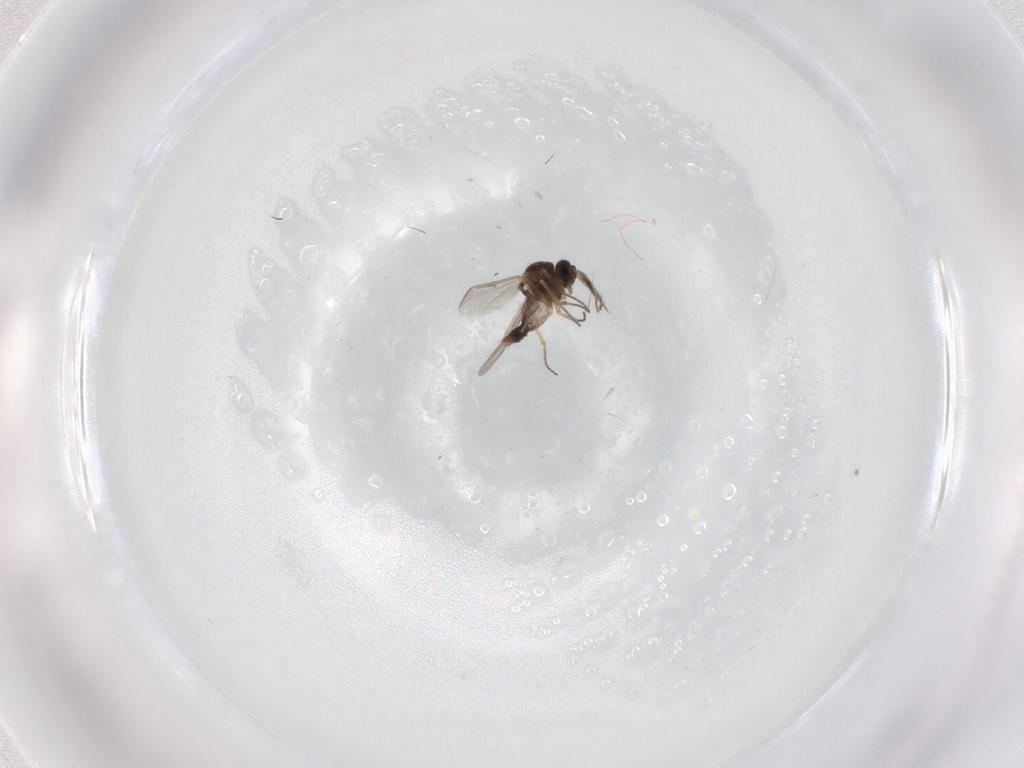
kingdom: Animalia
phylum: Arthropoda
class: Insecta
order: Diptera
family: Ceratopogonidae
